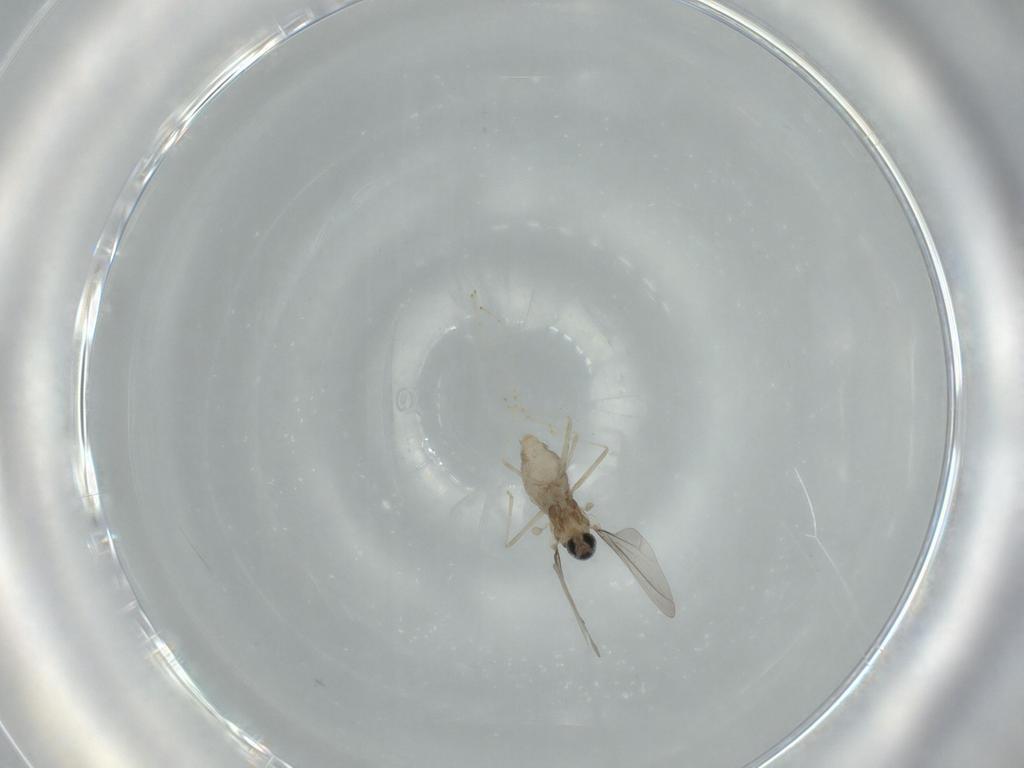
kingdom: Animalia
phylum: Arthropoda
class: Insecta
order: Diptera
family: Cecidomyiidae
